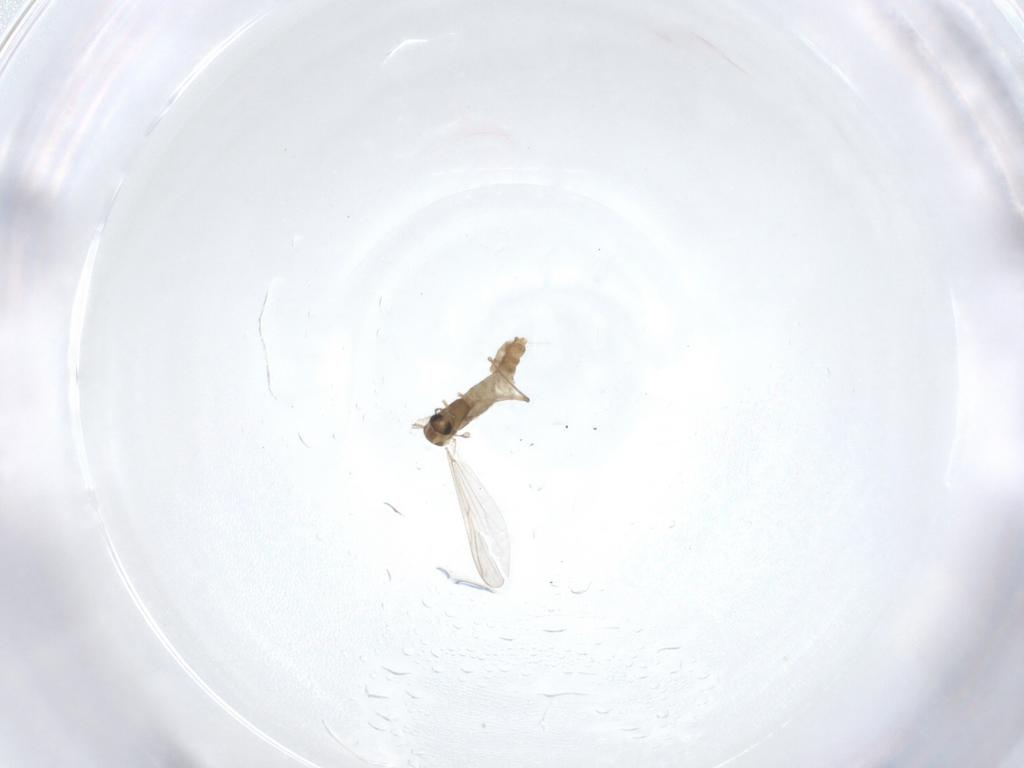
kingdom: Animalia
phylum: Arthropoda
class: Insecta
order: Diptera
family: Chironomidae
